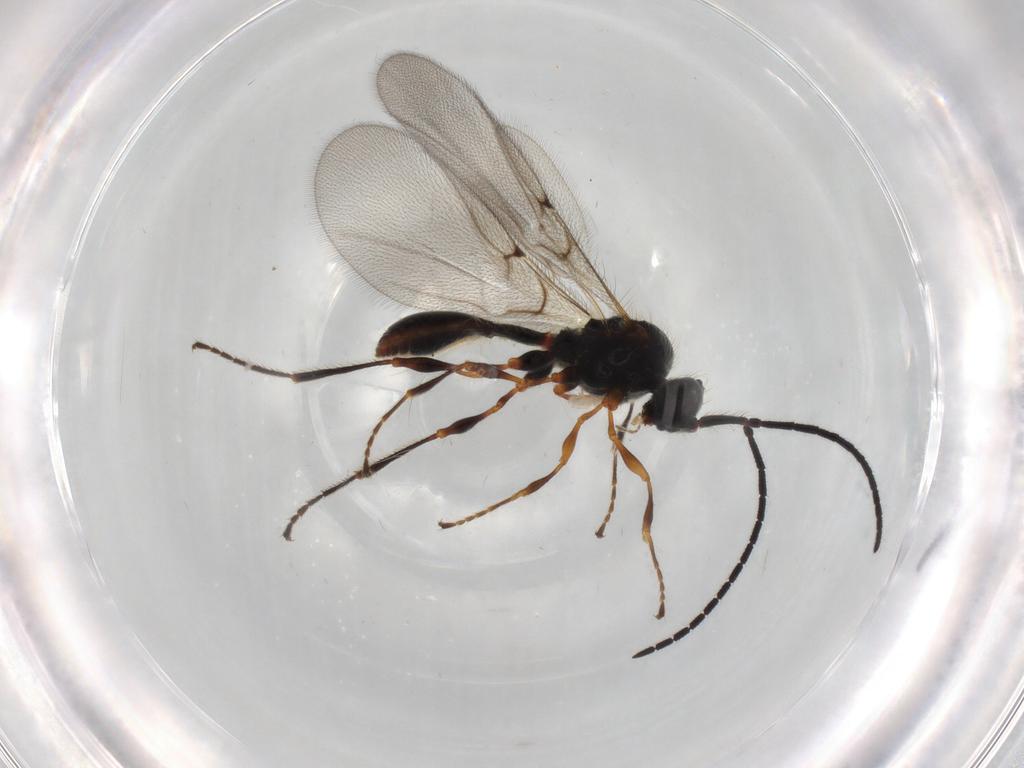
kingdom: Animalia
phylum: Arthropoda
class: Insecta
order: Hymenoptera
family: Diapriidae
